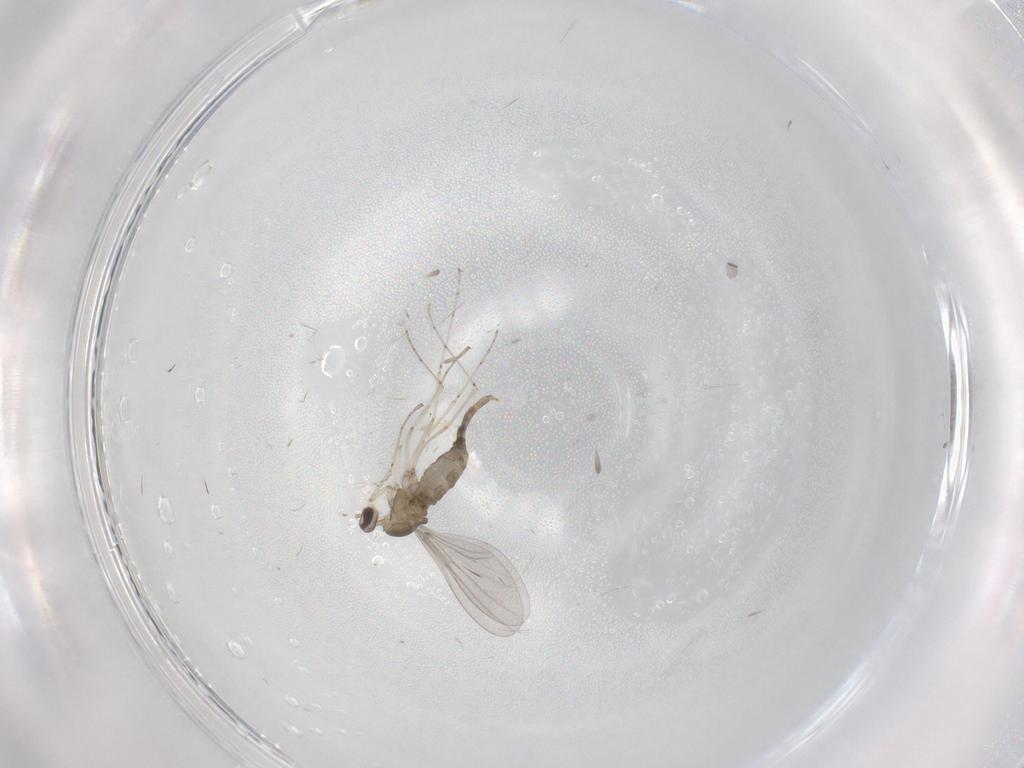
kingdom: Animalia
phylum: Arthropoda
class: Insecta
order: Diptera
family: Cecidomyiidae
